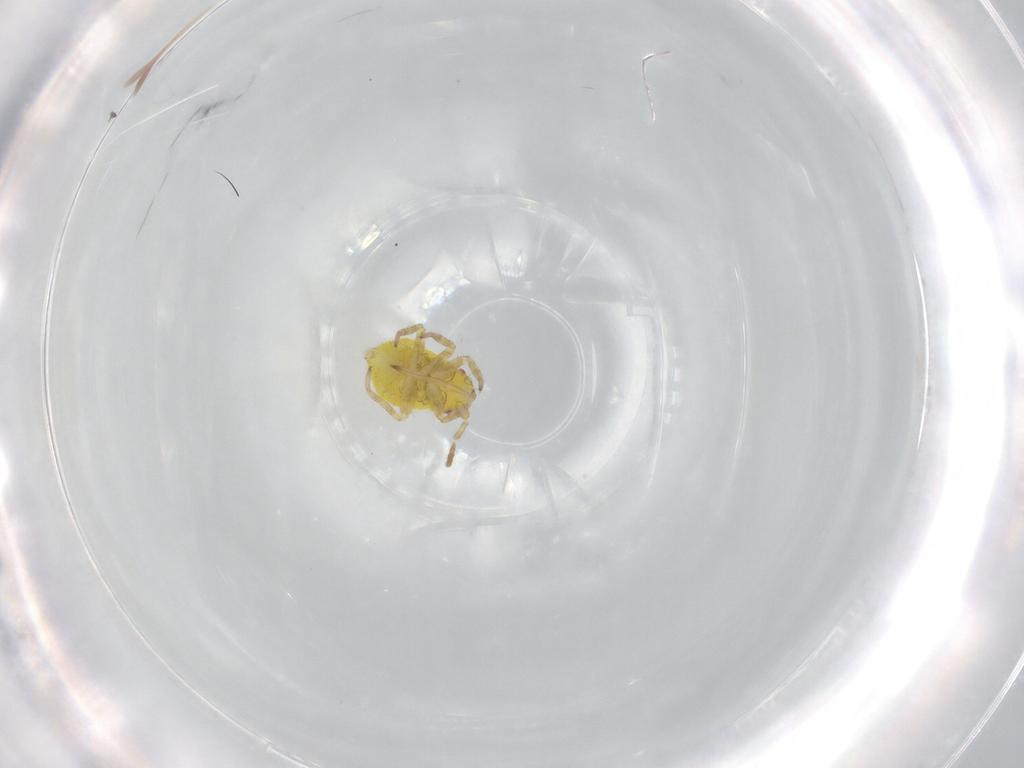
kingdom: Animalia
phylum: Arthropoda
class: Insecta
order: Hemiptera
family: Miridae
